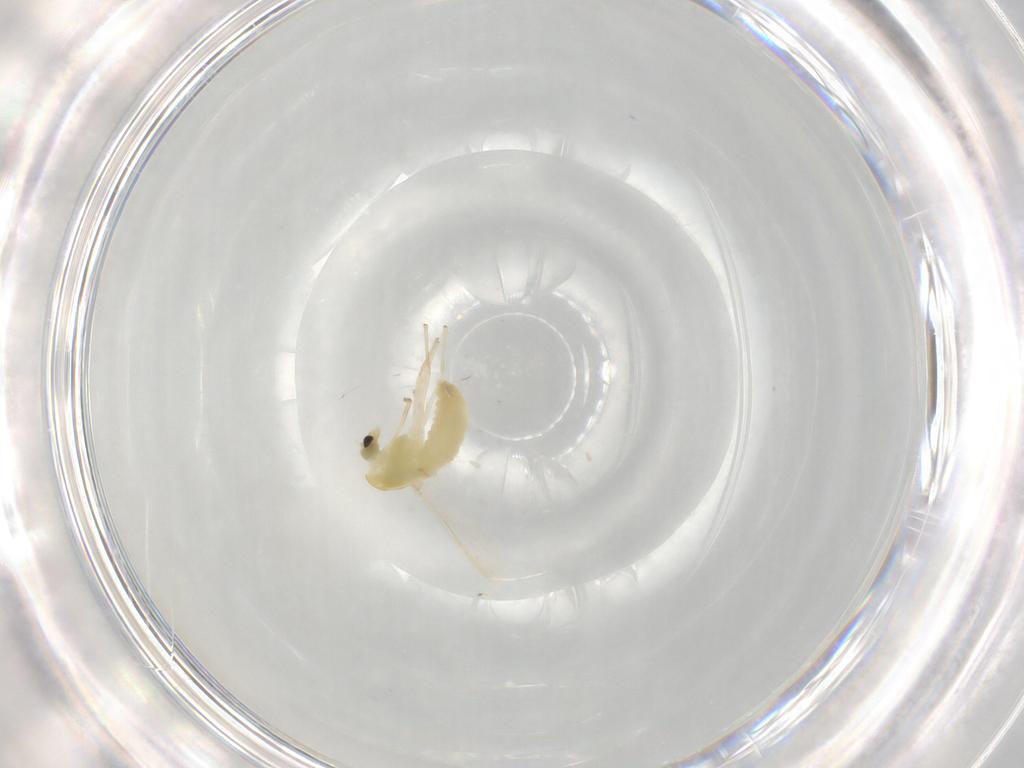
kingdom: Animalia
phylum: Arthropoda
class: Insecta
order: Diptera
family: Chironomidae
